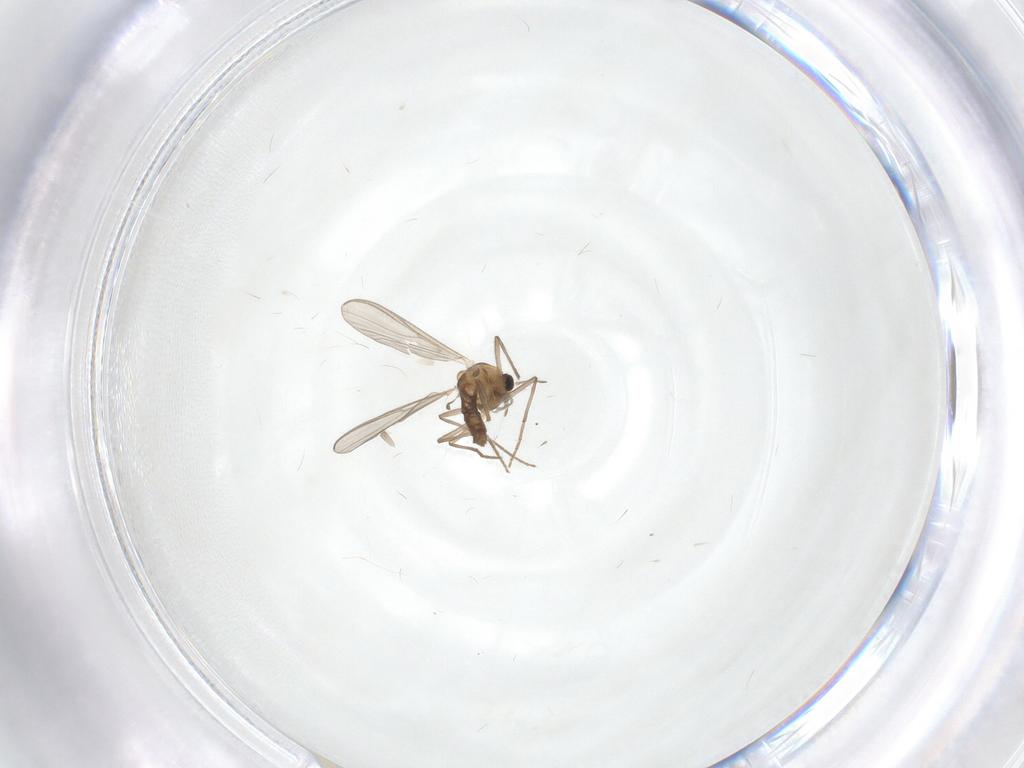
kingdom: Animalia
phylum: Arthropoda
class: Insecta
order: Diptera
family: Chironomidae
